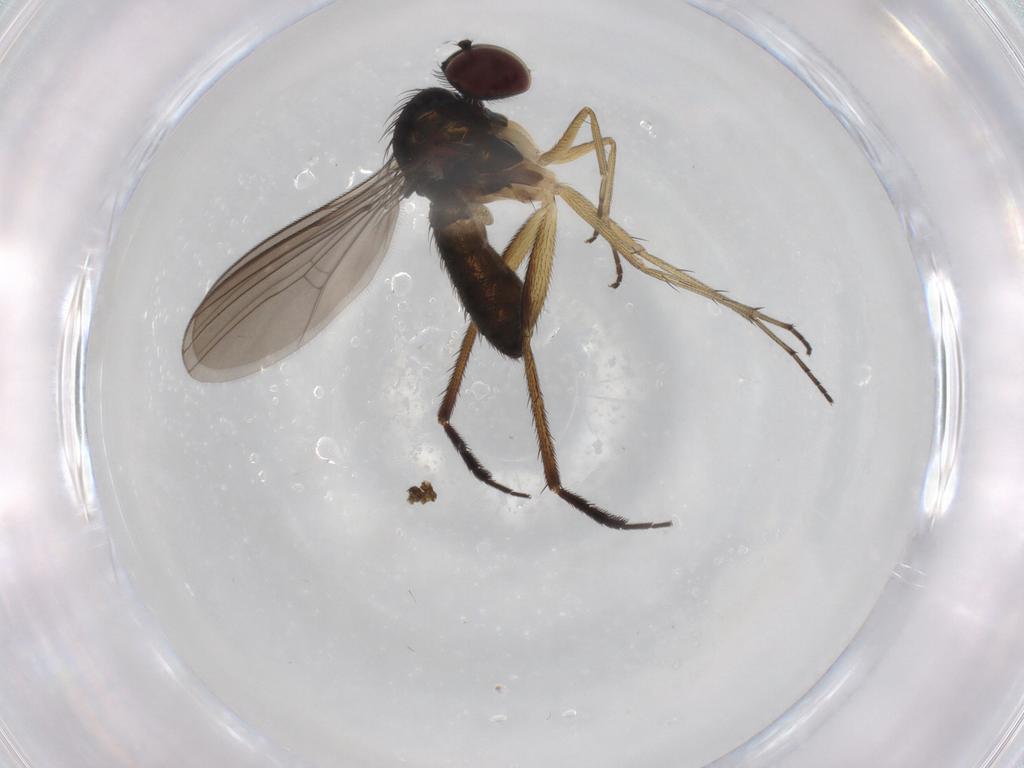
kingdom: Animalia
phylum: Arthropoda
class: Insecta
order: Diptera
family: Dolichopodidae
